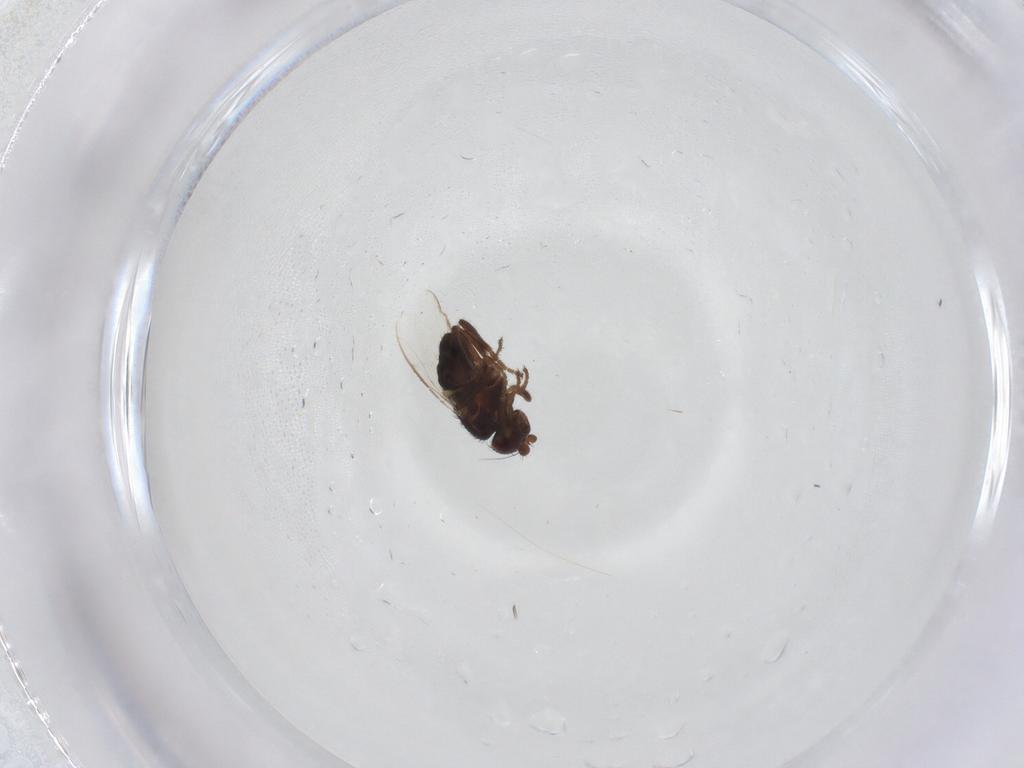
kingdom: Animalia
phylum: Arthropoda
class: Insecta
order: Diptera
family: Chironomidae
